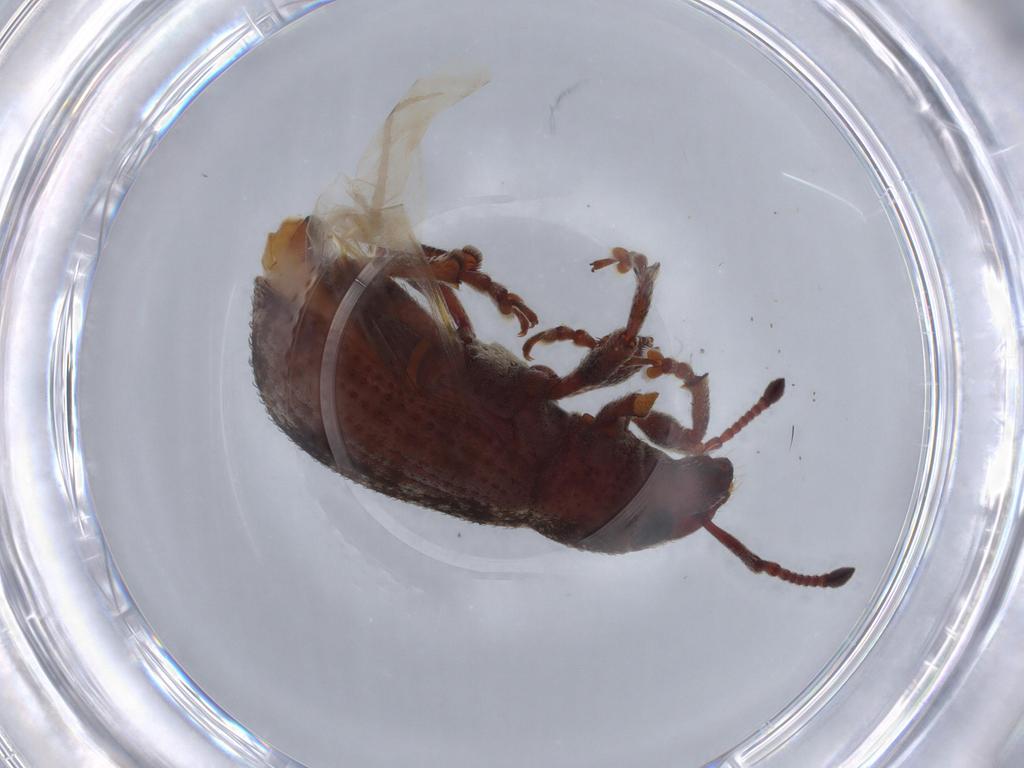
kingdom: Animalia
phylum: Arthropoda
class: Insecta
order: Coleoptera
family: Curculionidae
